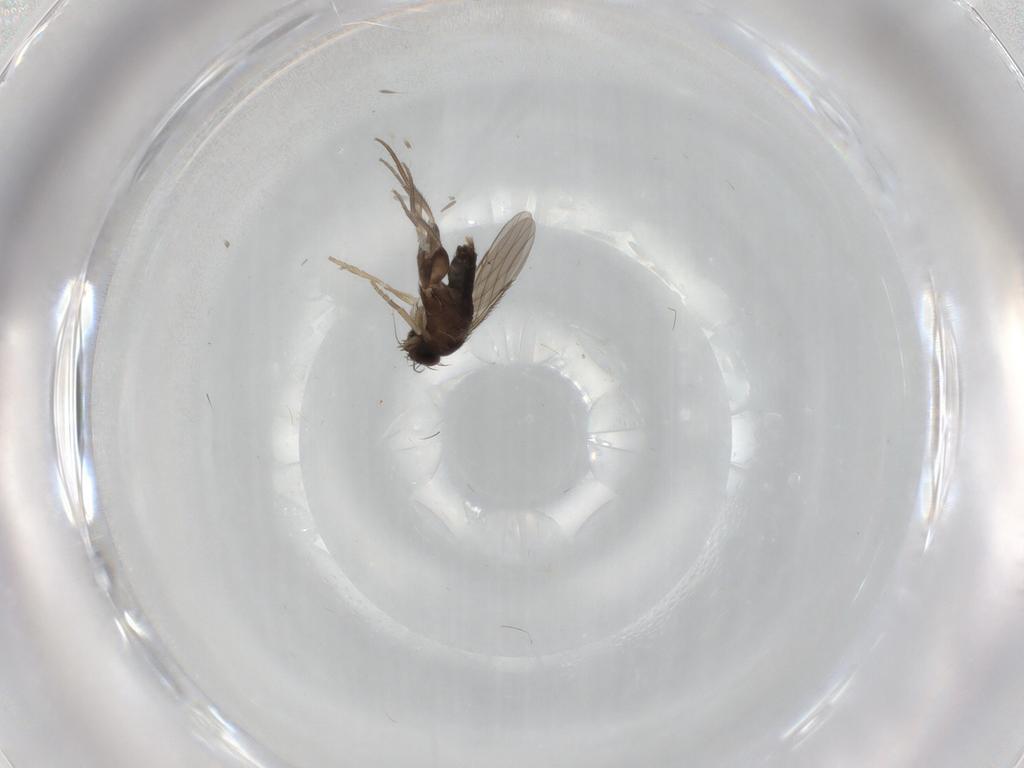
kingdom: Animalia
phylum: Arthropoda
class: Insecta
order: Diptera
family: Phoridae
